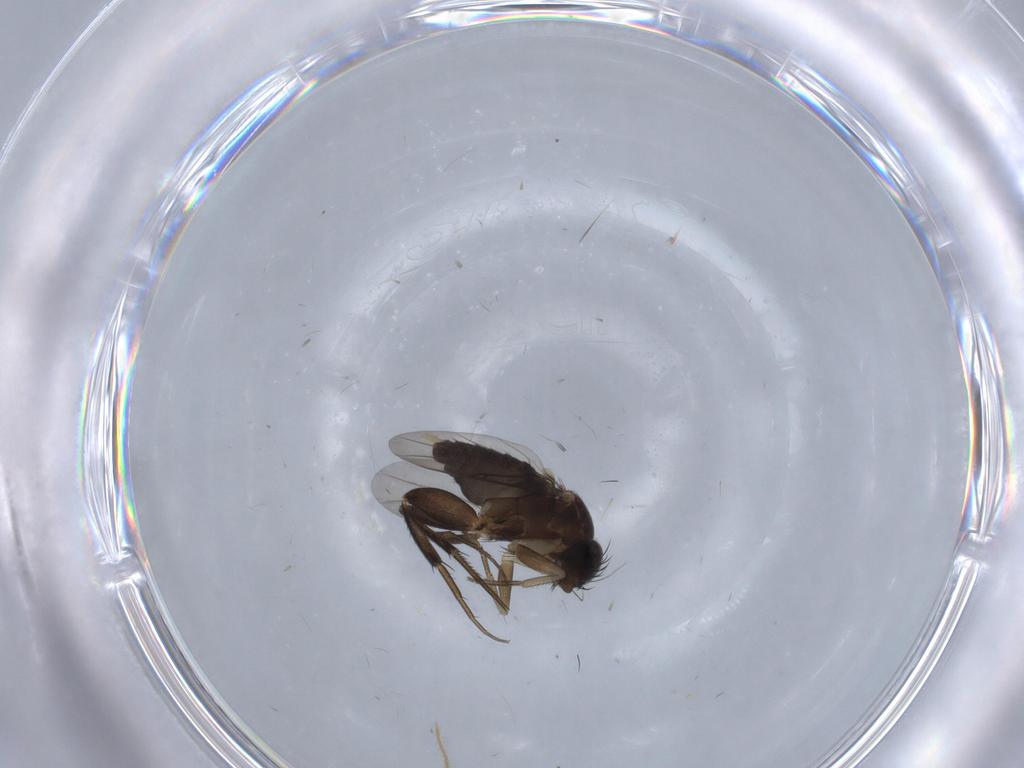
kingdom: Animalia
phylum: Arthropoda
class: Insecta
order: Diptera
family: Phoridae
